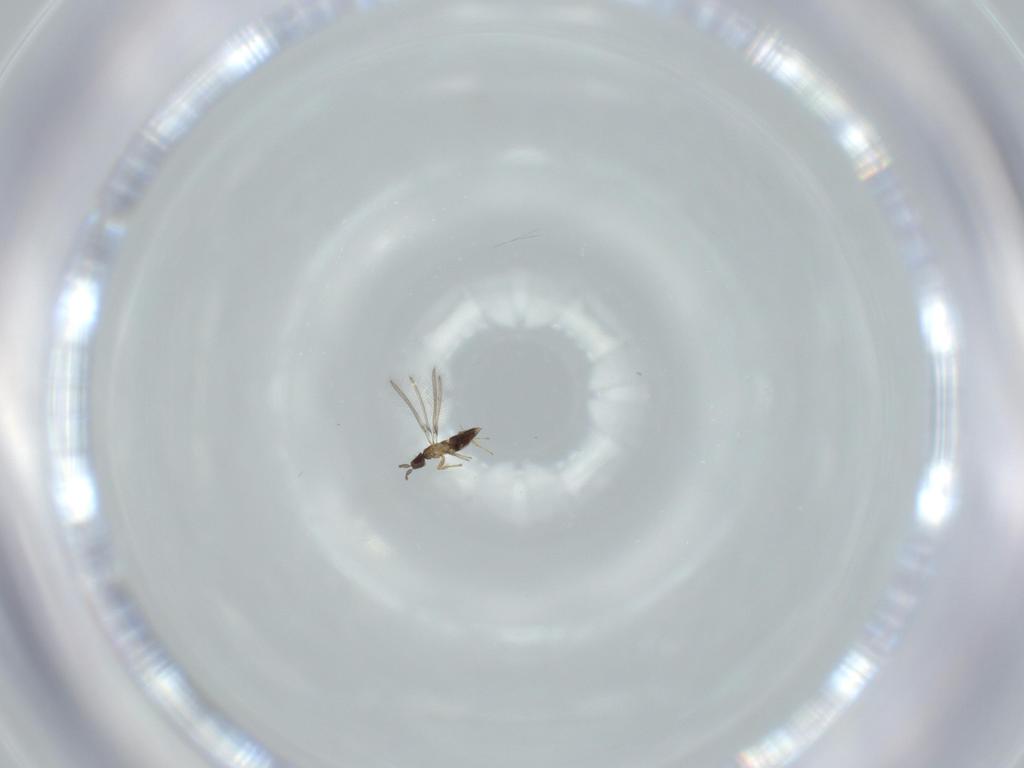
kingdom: Animalia
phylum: Arthropoda
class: Insecta
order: Hymenoptera
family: Mymaridae
